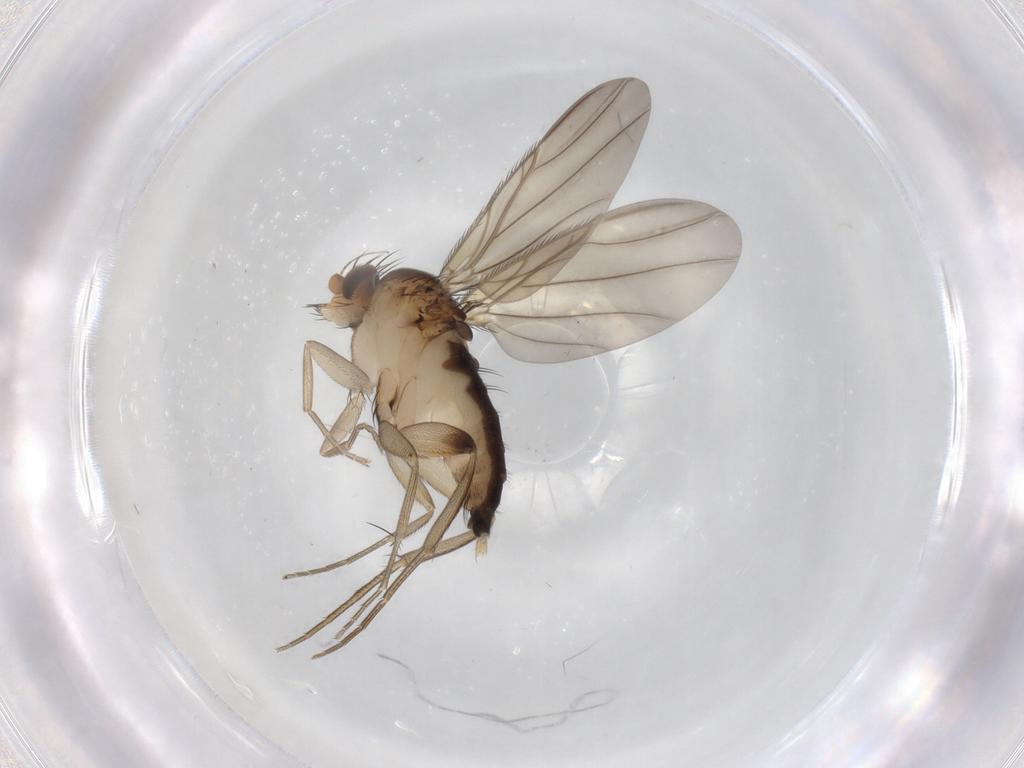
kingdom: Animalia
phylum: Arthropoda
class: Insecta
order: Diptera
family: Phoridae
